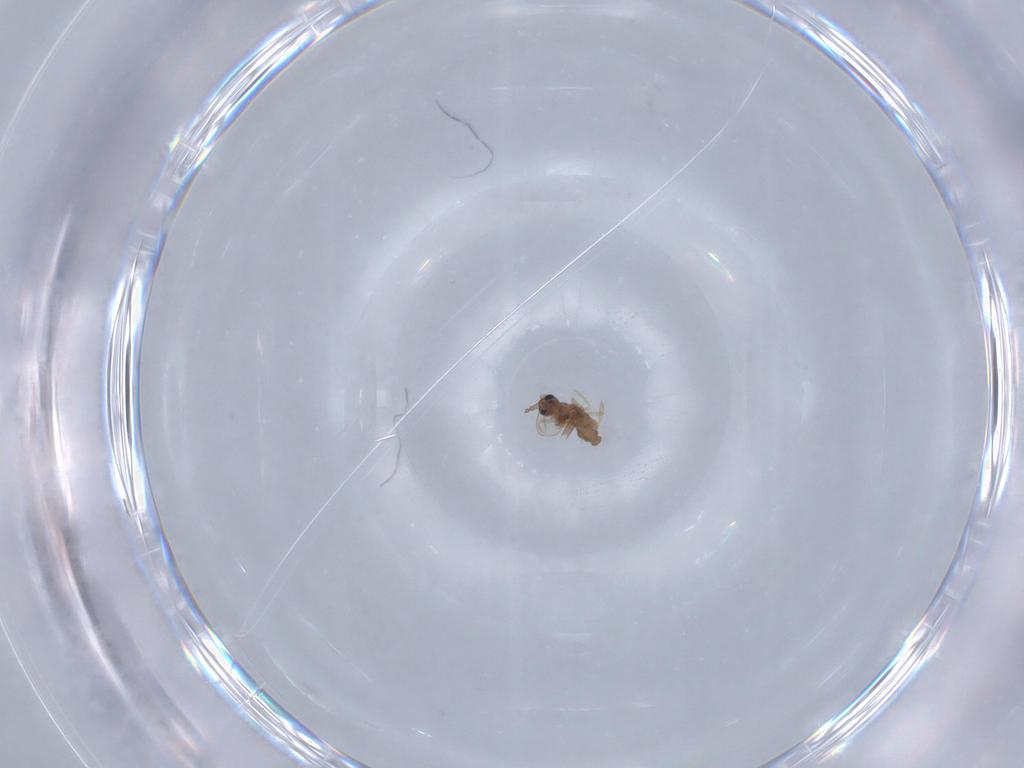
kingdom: Animalia
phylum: Arthropoda
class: Insecta
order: Diptera
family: Cecidomyiidae
